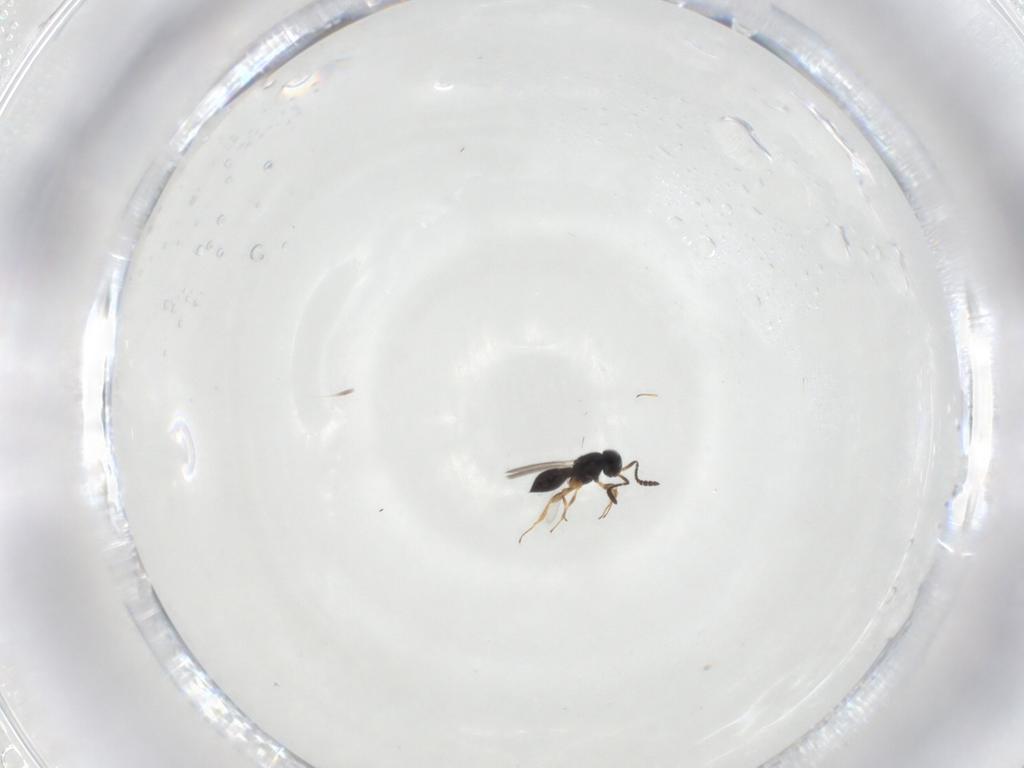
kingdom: Animalia
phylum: Arthropoda
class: Insecta
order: Hymenoptera
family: Scelionidae
